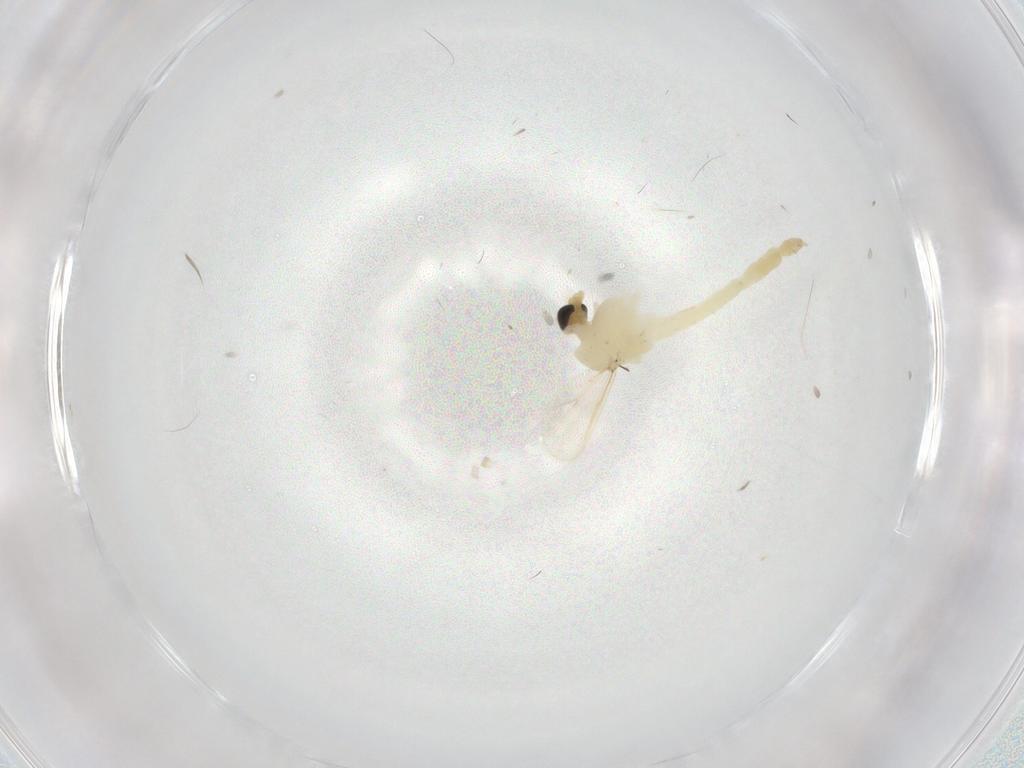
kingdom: Animalia
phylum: Arthropoda
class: Insecta
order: Diptera
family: Chironomidae
